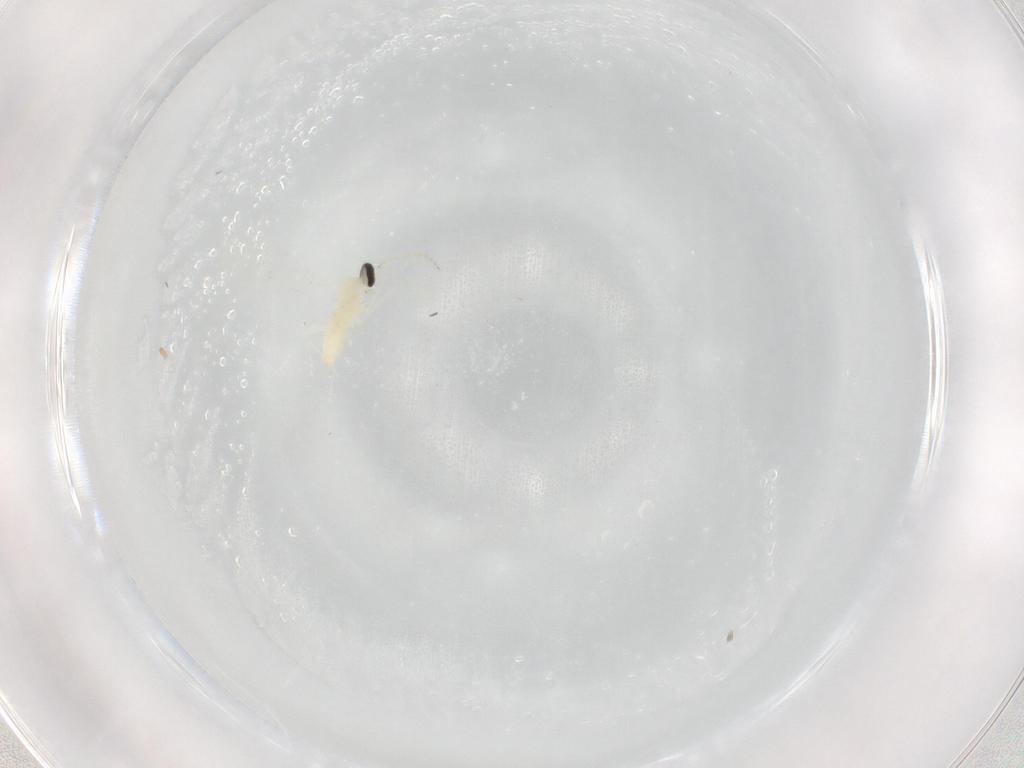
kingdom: Animalia
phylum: Arthropoda
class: Insecta
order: Diptera
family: Cecidomyiidae
